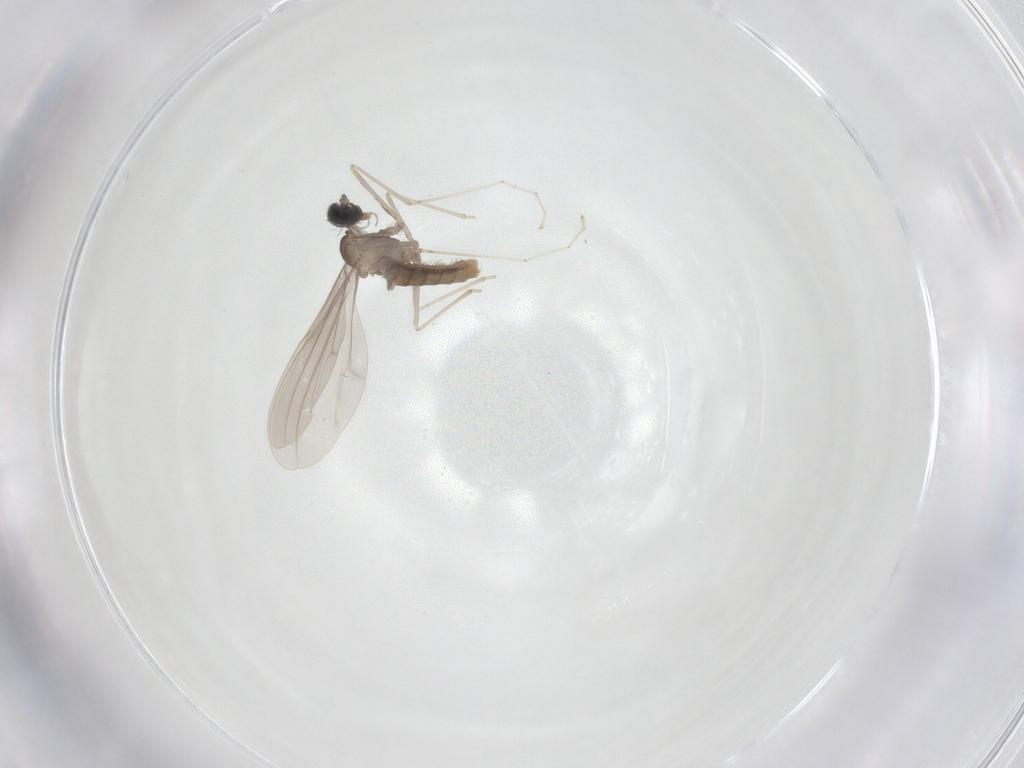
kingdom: Animalia
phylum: Arthropoda
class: Insecta
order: Diptera
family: Cecidomyiidae
